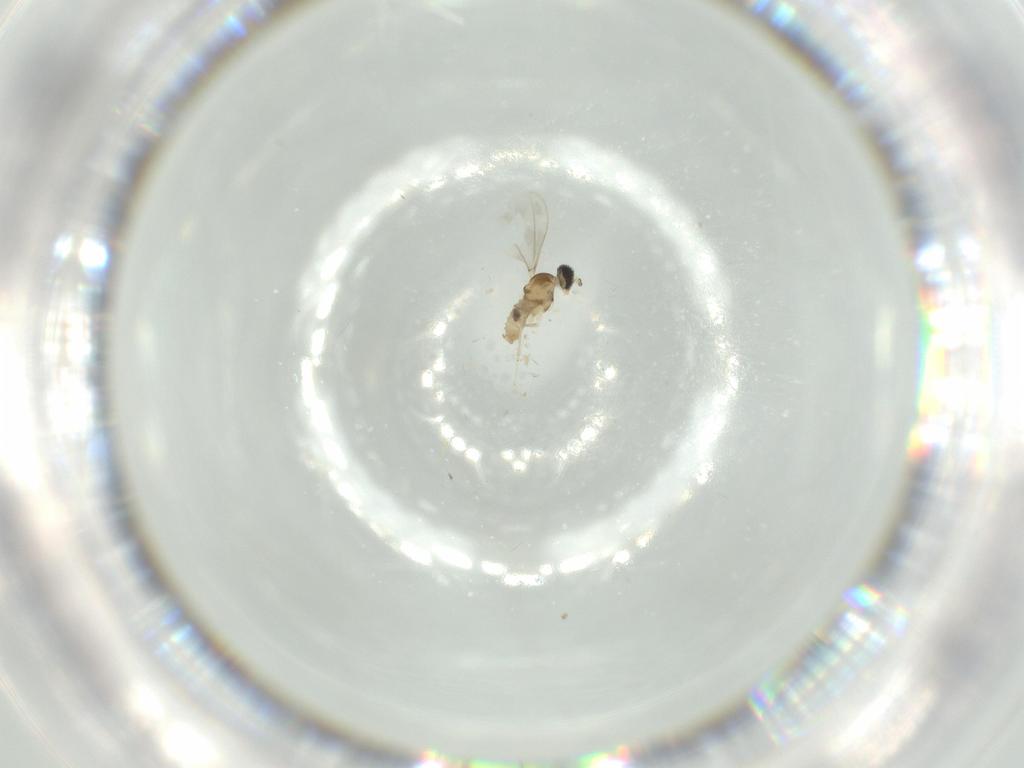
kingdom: Animalia
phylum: Arthropoda
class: Insecta
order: Diptera
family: Cecidomyiidae
